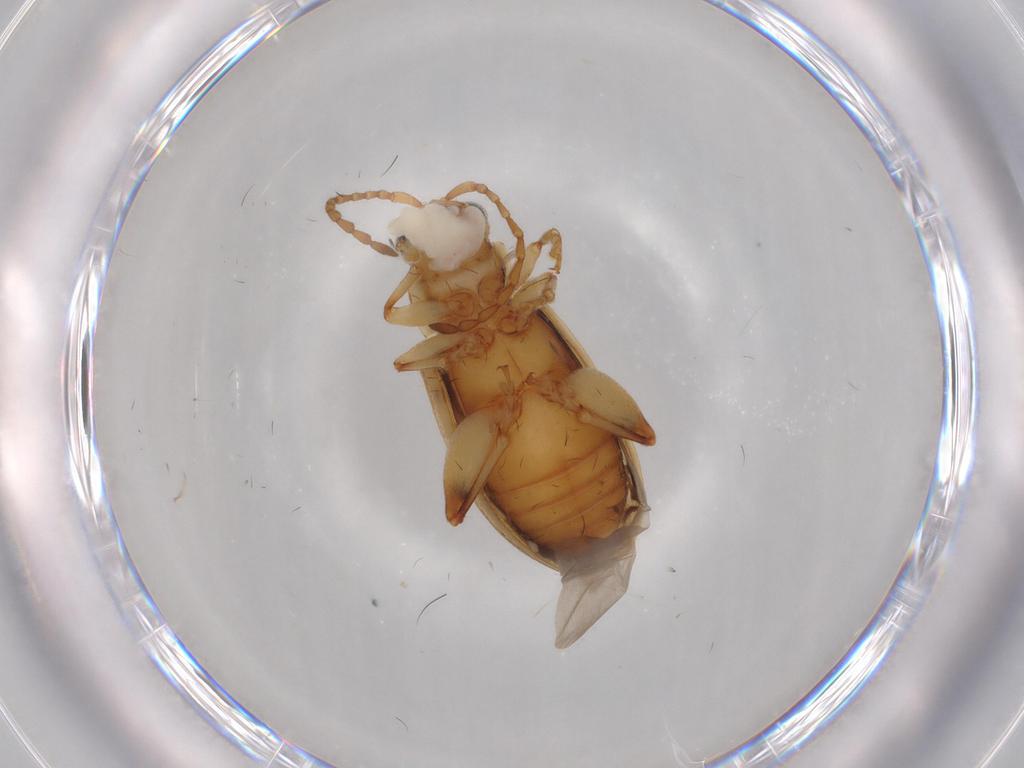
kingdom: Animalia
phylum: Arthropoda
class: Insecta
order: Coleoptera
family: Chrysomelidae
